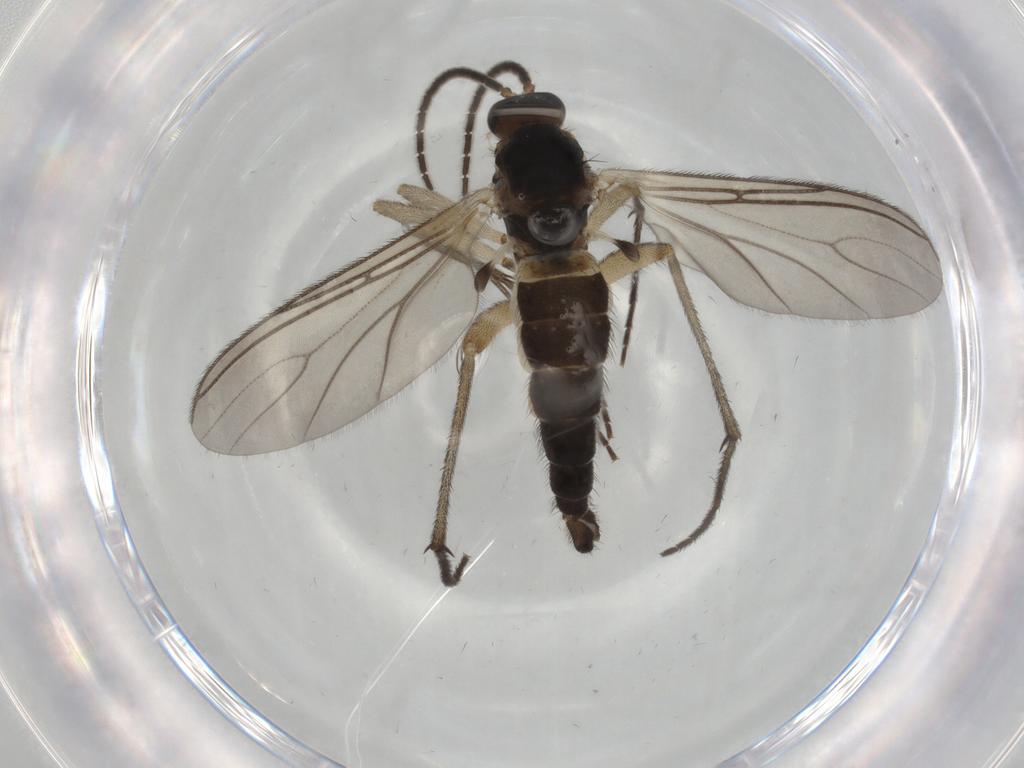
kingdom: Animalia
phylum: Arthropoda
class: Insecta
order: Diptera
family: Sciaridae
